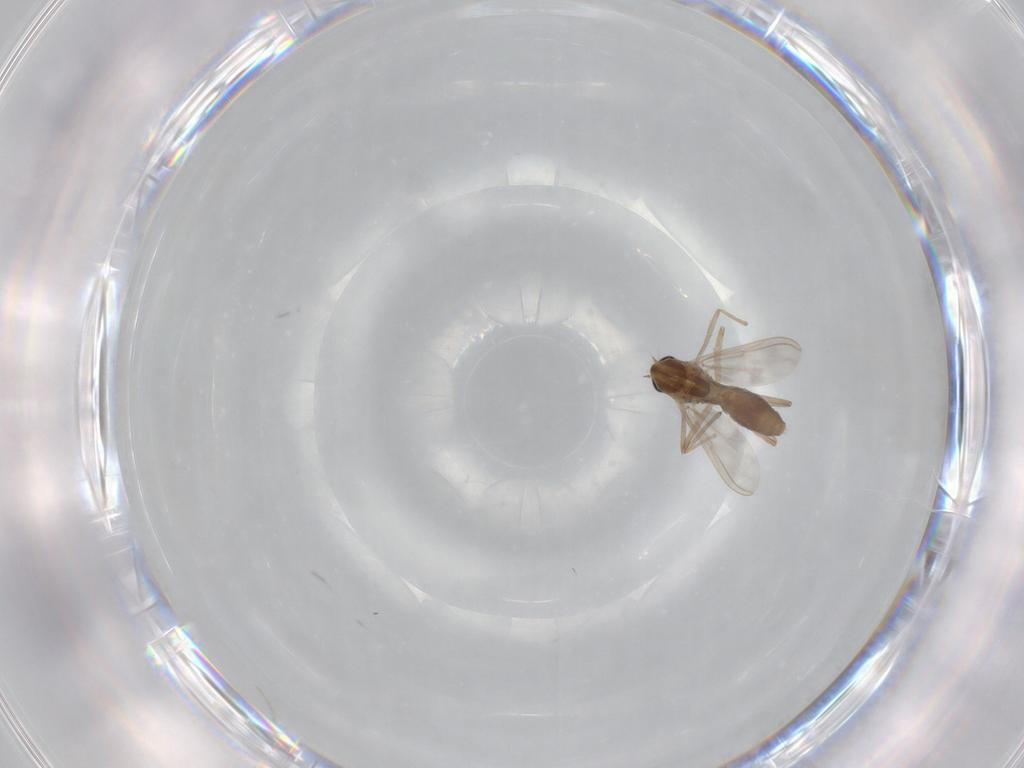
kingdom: Animalia
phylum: Arthropoda
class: Insecta
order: Diptera
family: Chironomidae
